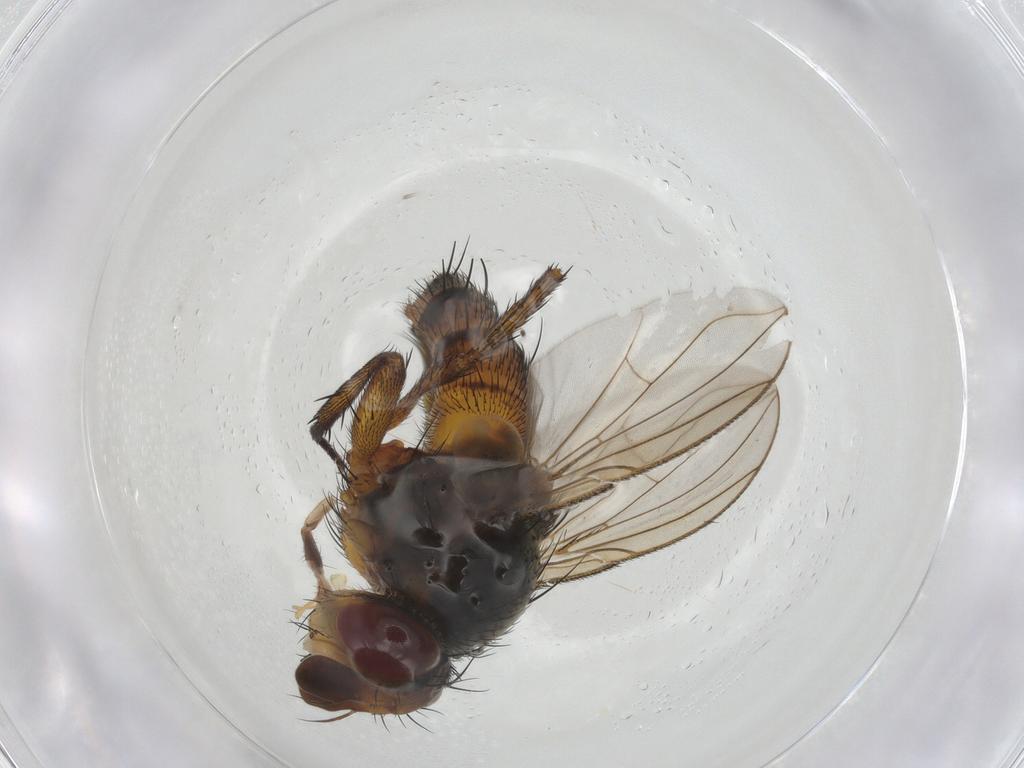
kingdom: Animalia
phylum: Arthropoda
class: Insecta
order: Diptera
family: Tachinidae
